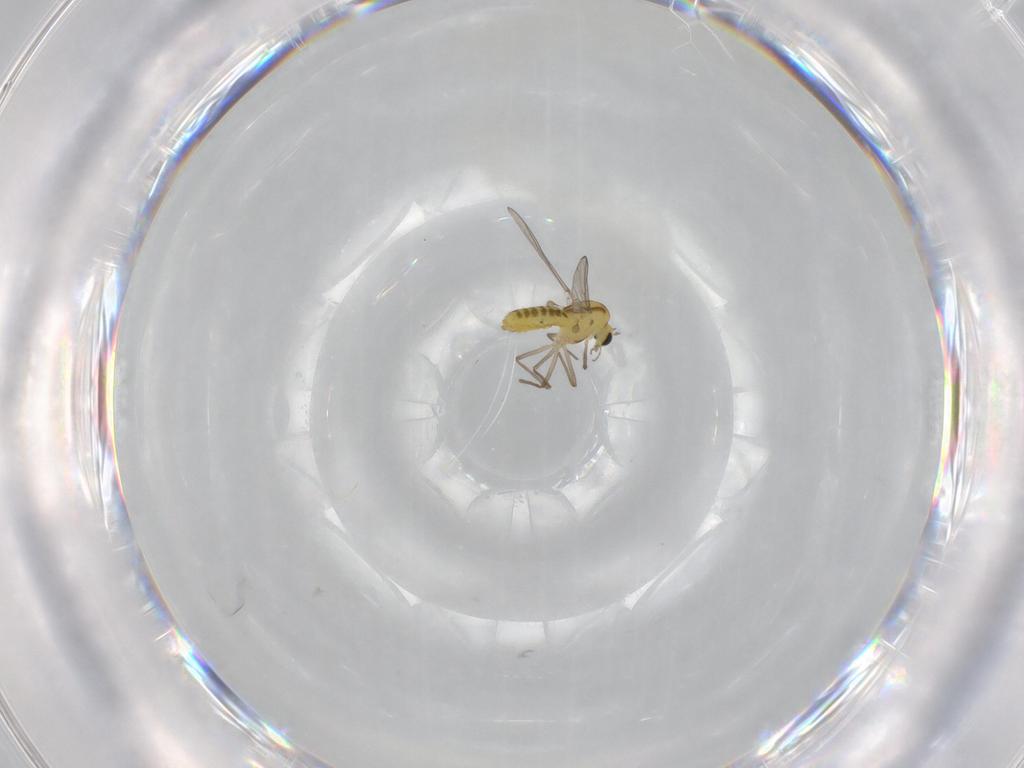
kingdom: Animalia
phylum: Arthropoda
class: Insecta
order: Diptera
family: Chironomidae
